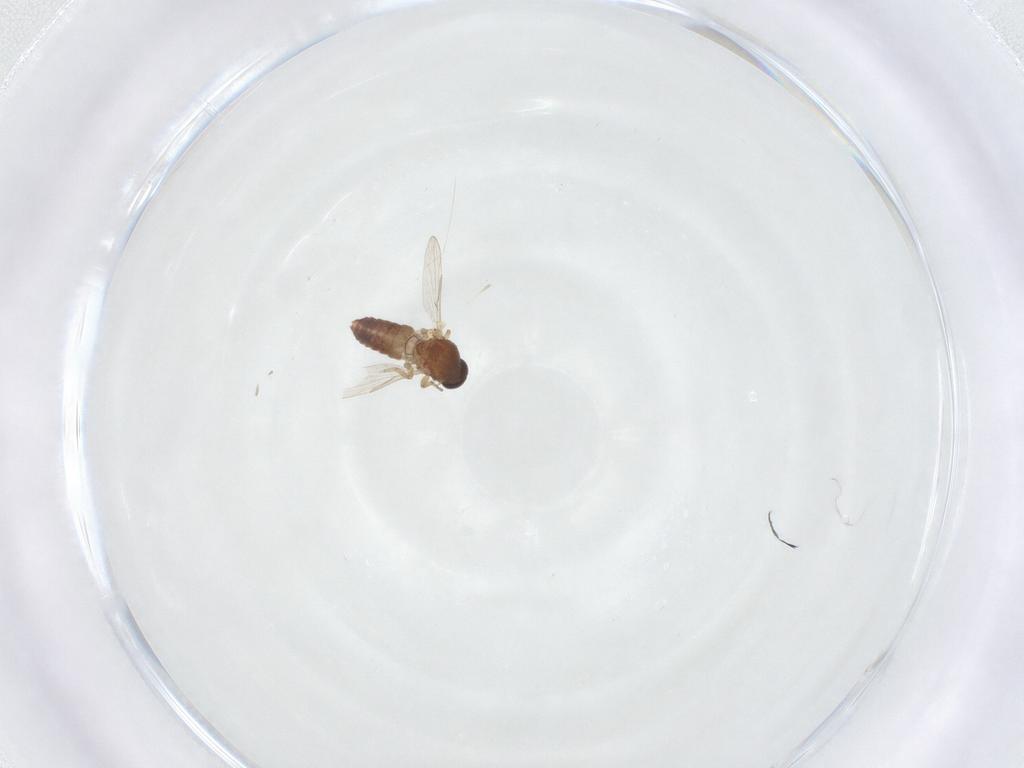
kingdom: Animalia
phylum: Arthropoda
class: Insecta
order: Diptera
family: Ceratopogonidae
